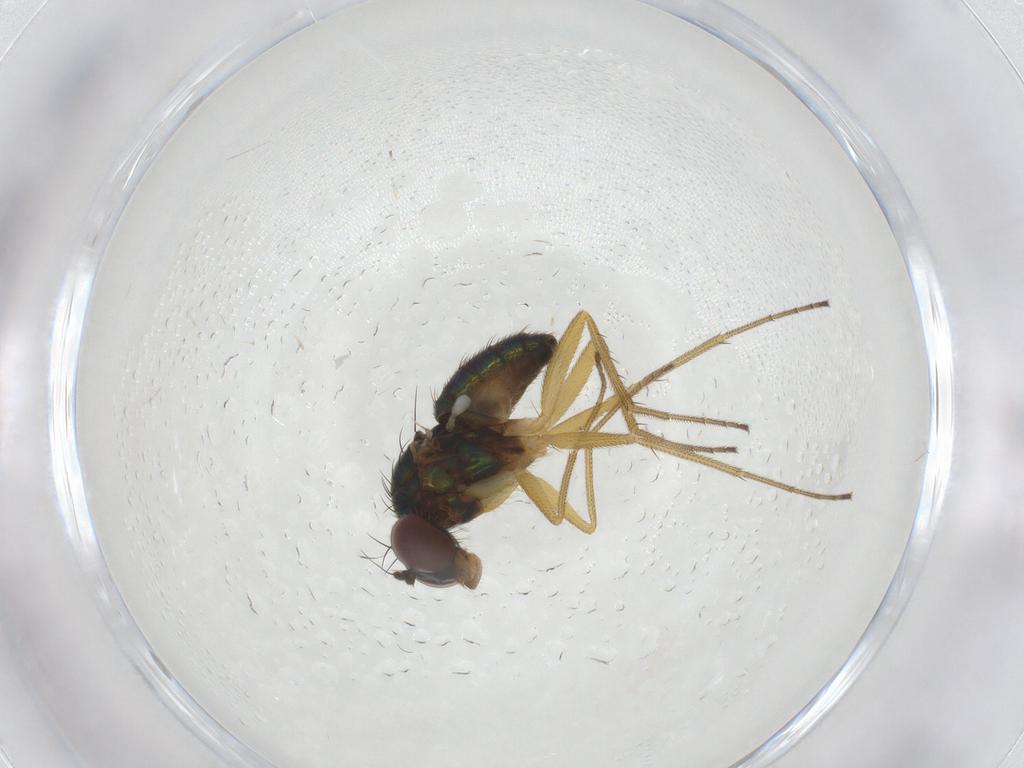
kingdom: Animalia
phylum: Arthropoda
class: Insecta
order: Diptera
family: Dolichopodidae
